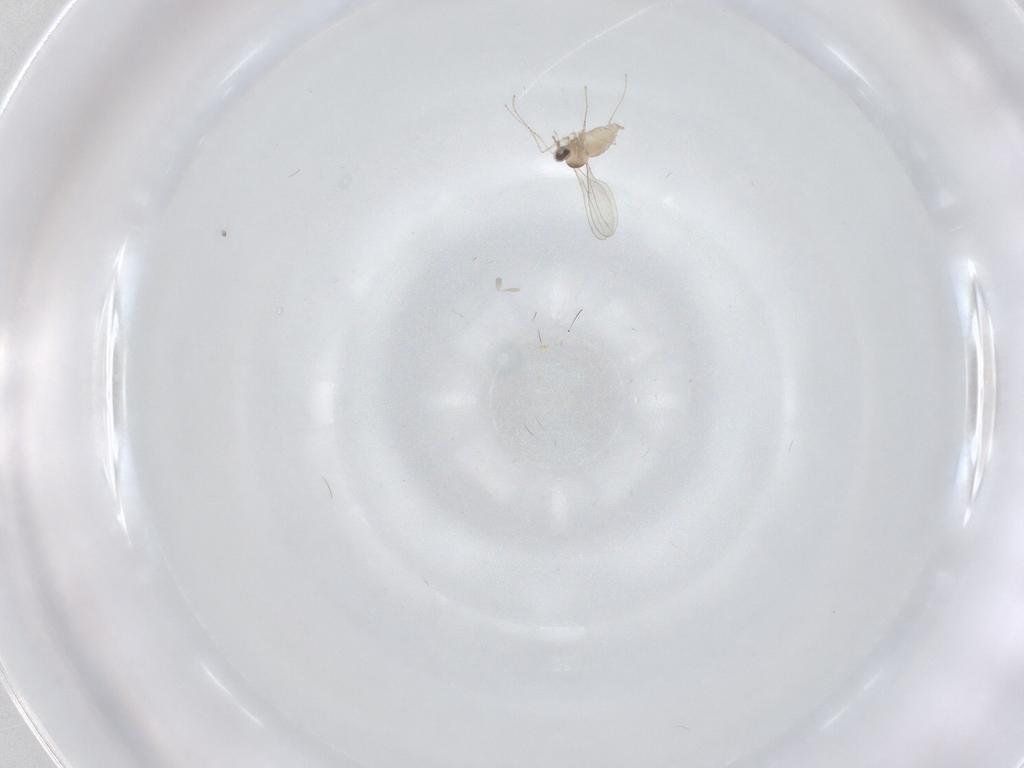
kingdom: Animalia
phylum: Arthropoda
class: Insecta
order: Diptera
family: Cecidomyiidae
